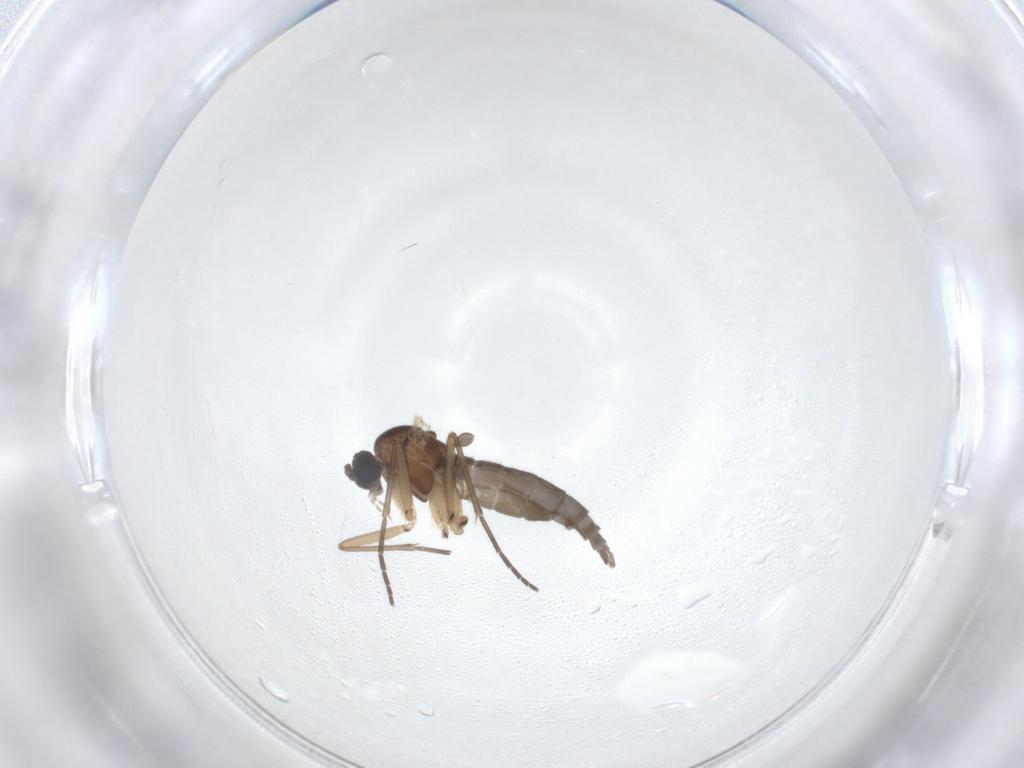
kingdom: Animalia
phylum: Arthropoda
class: Insecta
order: Diptera
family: Sciaridae
